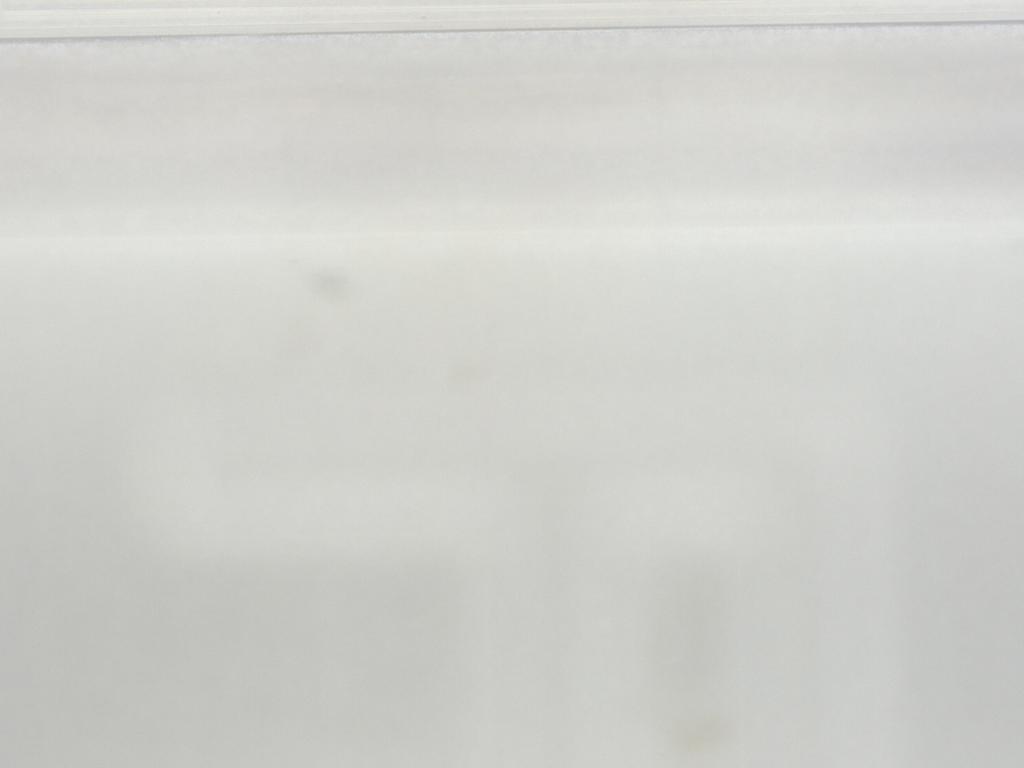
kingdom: Animalia
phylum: Arthropoda
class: Insecta
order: Diptera
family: Sciaridae
